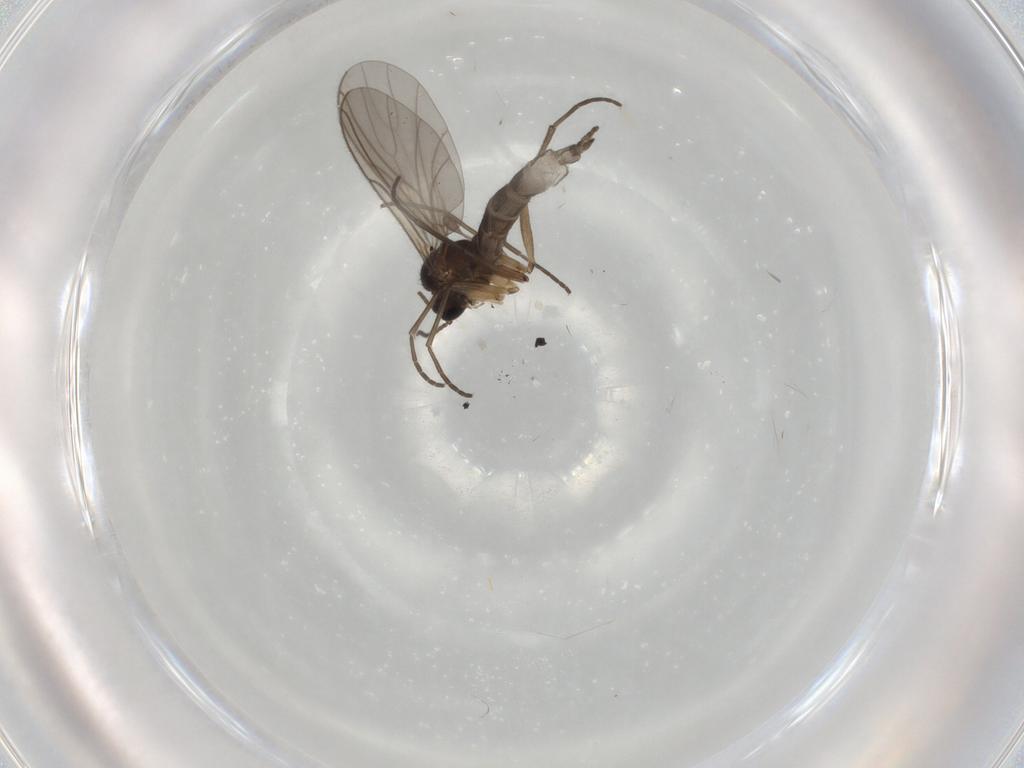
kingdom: Animalia
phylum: Arthropoda
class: Insecta
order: Diptera
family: Sciaridae
